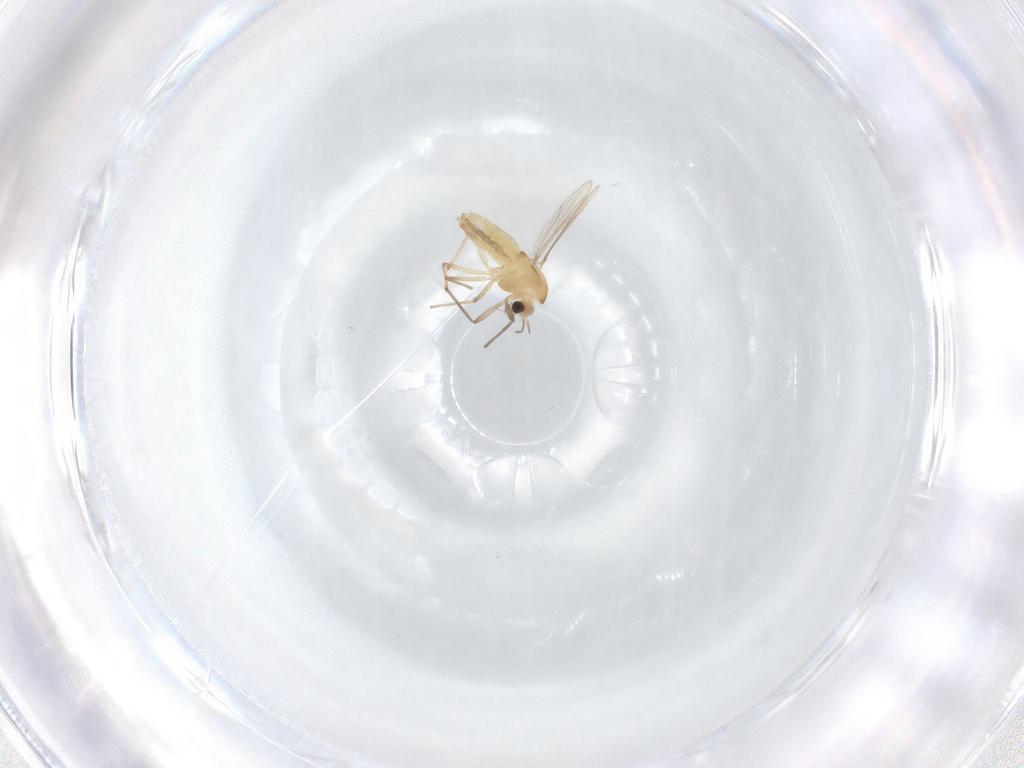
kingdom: Animalia
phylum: Arthropoda
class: Insecta
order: Diptera
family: Chironomidae
